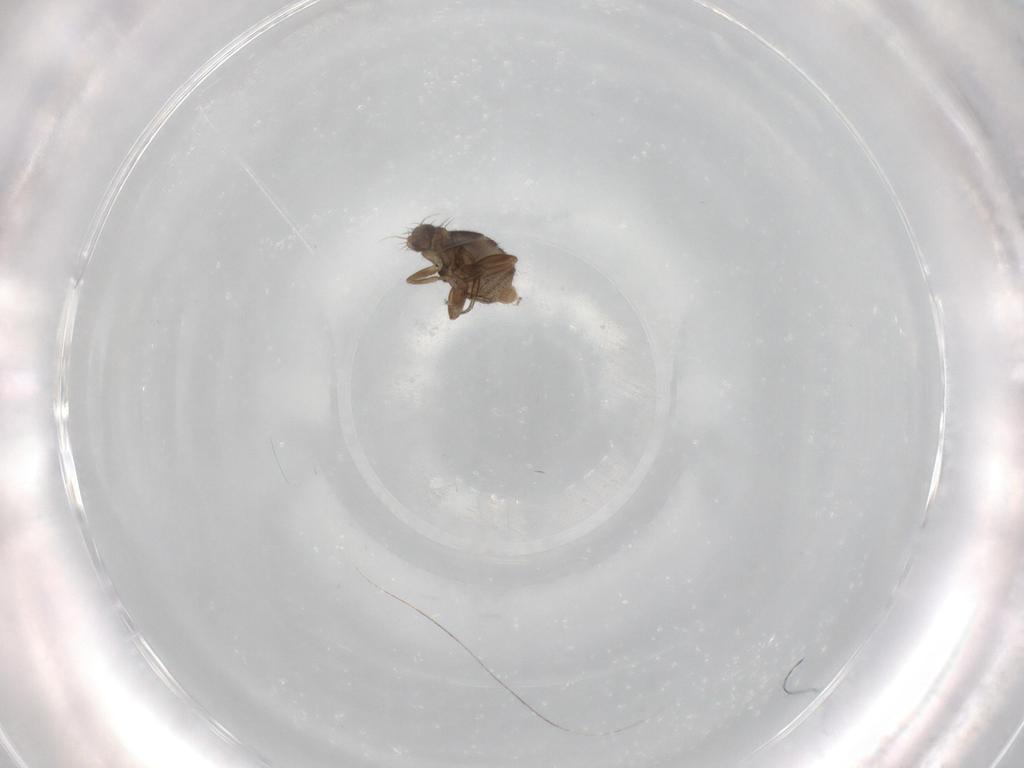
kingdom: Animalia
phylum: Arthropoda
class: Insecta
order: Diptera
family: Phoridae
